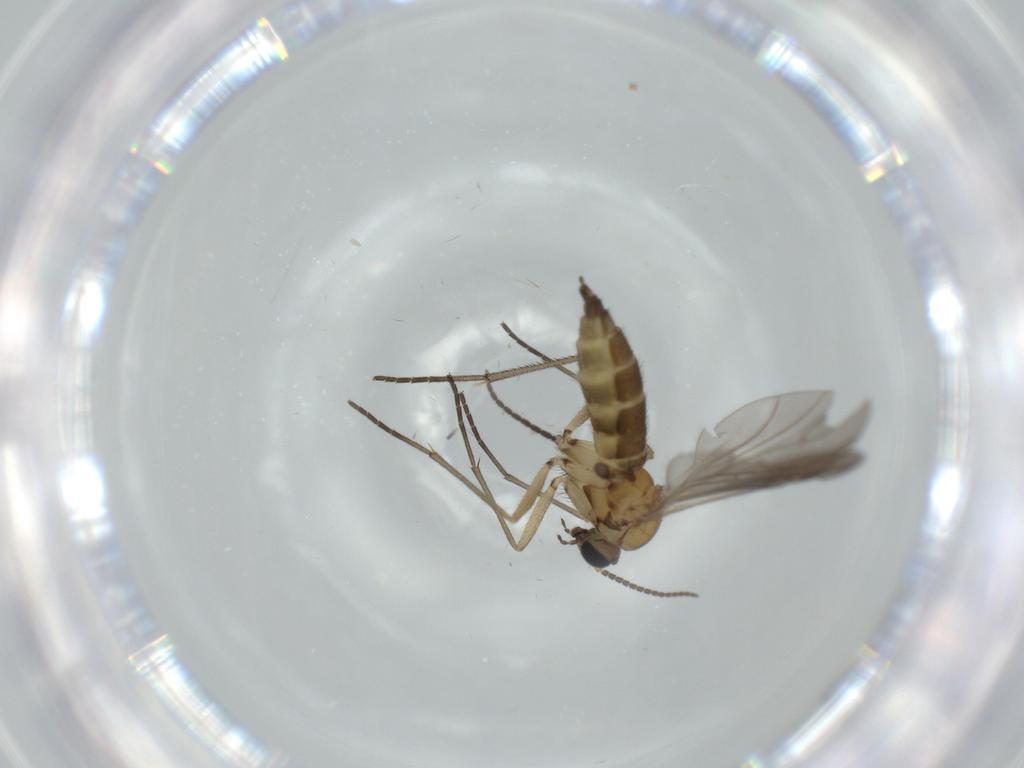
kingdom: Animalia
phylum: Arthropoda
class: Insecta
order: Diptera
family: Sciaridae
